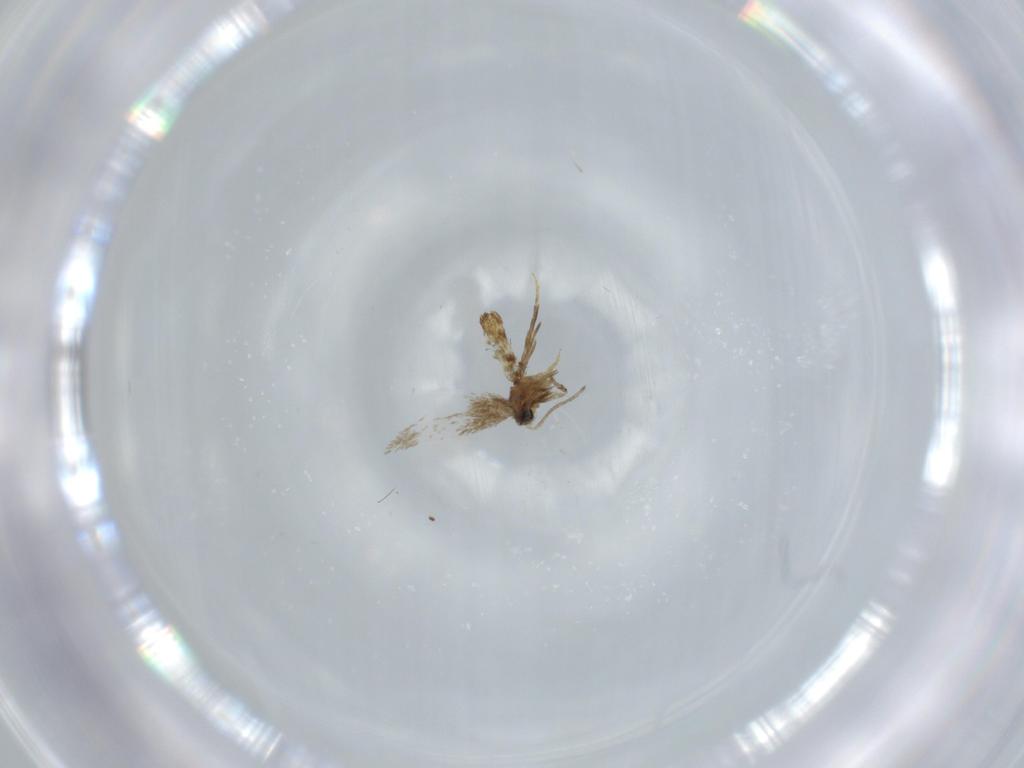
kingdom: Animalia
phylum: Arthropoda
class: Insecta
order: Lepidoptera
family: Nepticulidae
